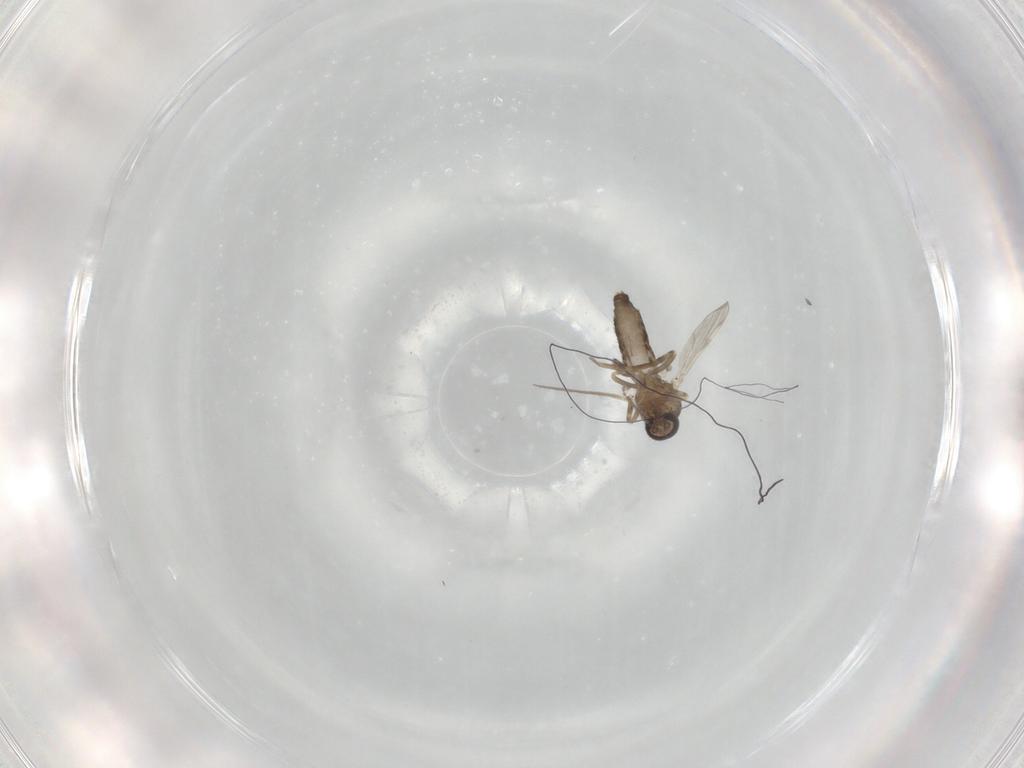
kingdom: Animalia
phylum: Arthropoda
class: Insecta
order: Diptera
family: Ceratopogonidae
